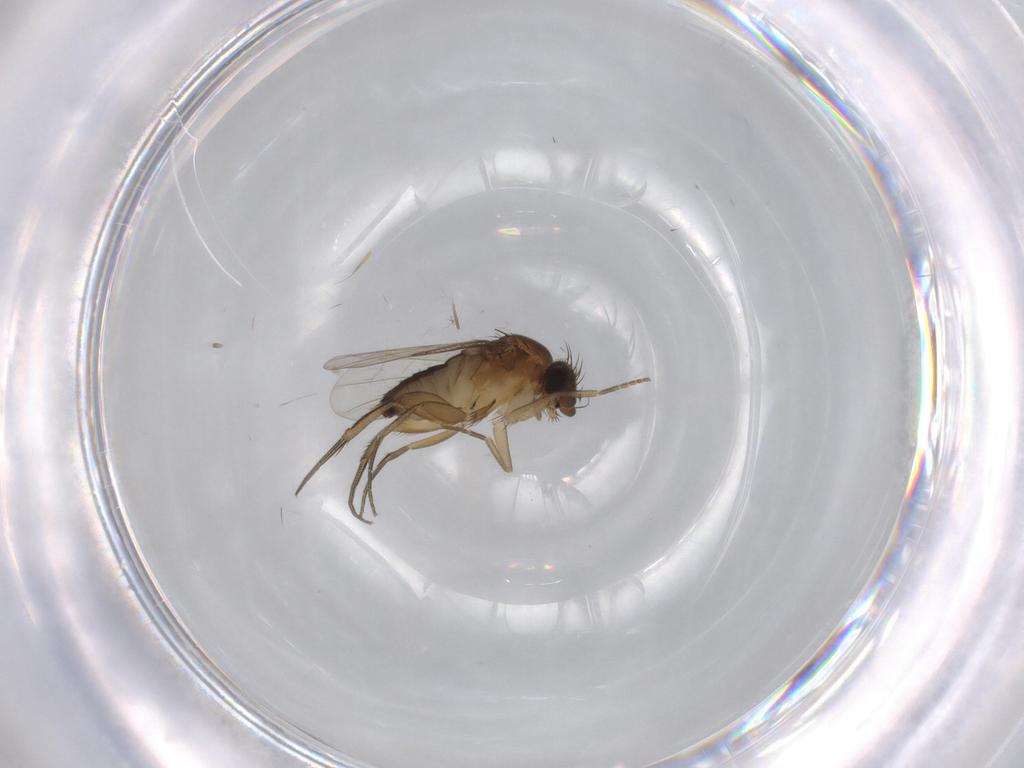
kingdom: Animalia
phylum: Arthropoda
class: Insecta
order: Diptera
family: Phoridae
